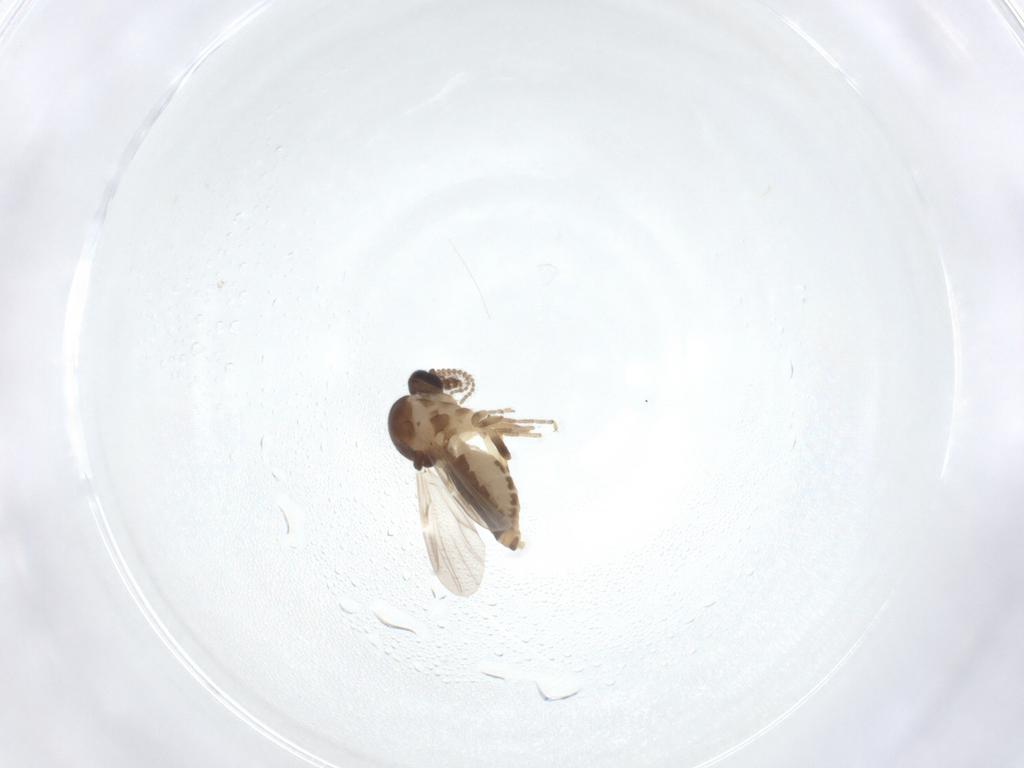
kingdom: Animalia
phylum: Arthropoda
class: Insecta
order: Diptera
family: Ceratopogonidae
